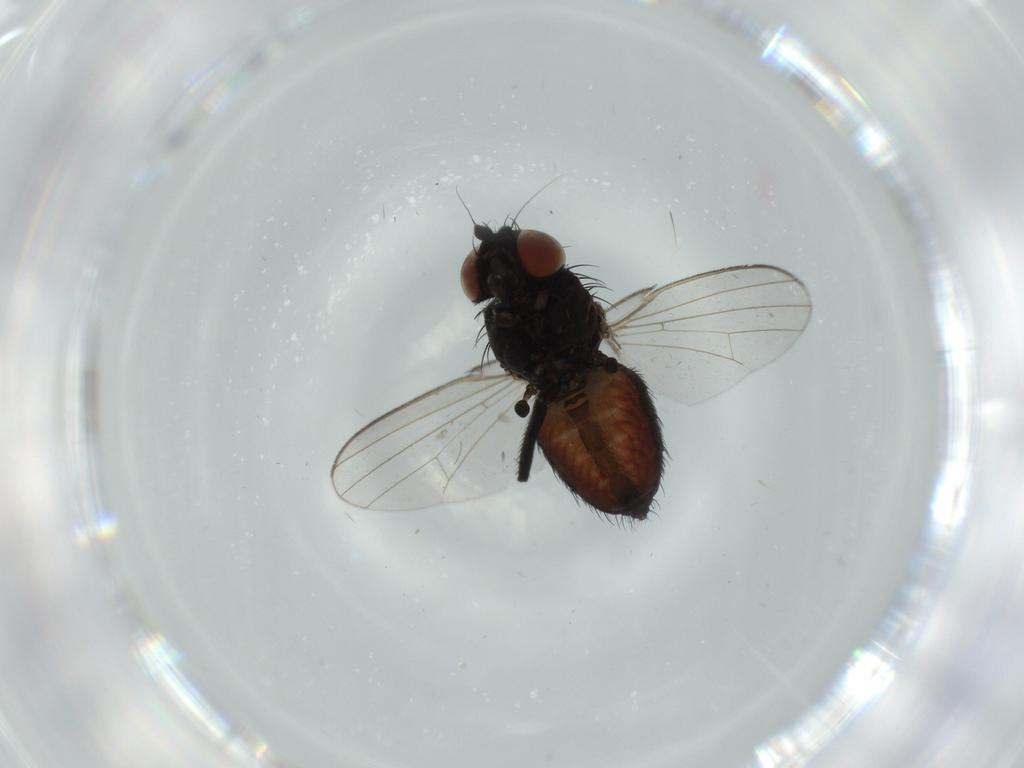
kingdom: Animalia
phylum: Arthropoda
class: Insecta
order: Diptera
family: Milichiidae
